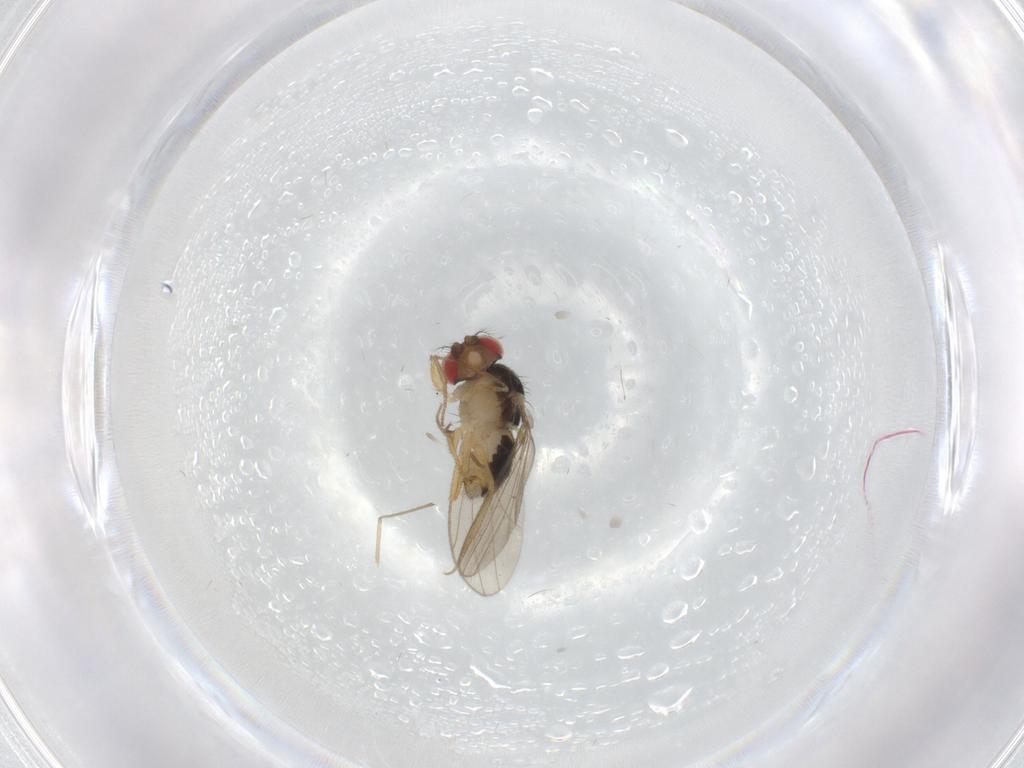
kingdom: Animalia
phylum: Arthropoda
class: Insecta
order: Diptera
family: Drosophilidae
